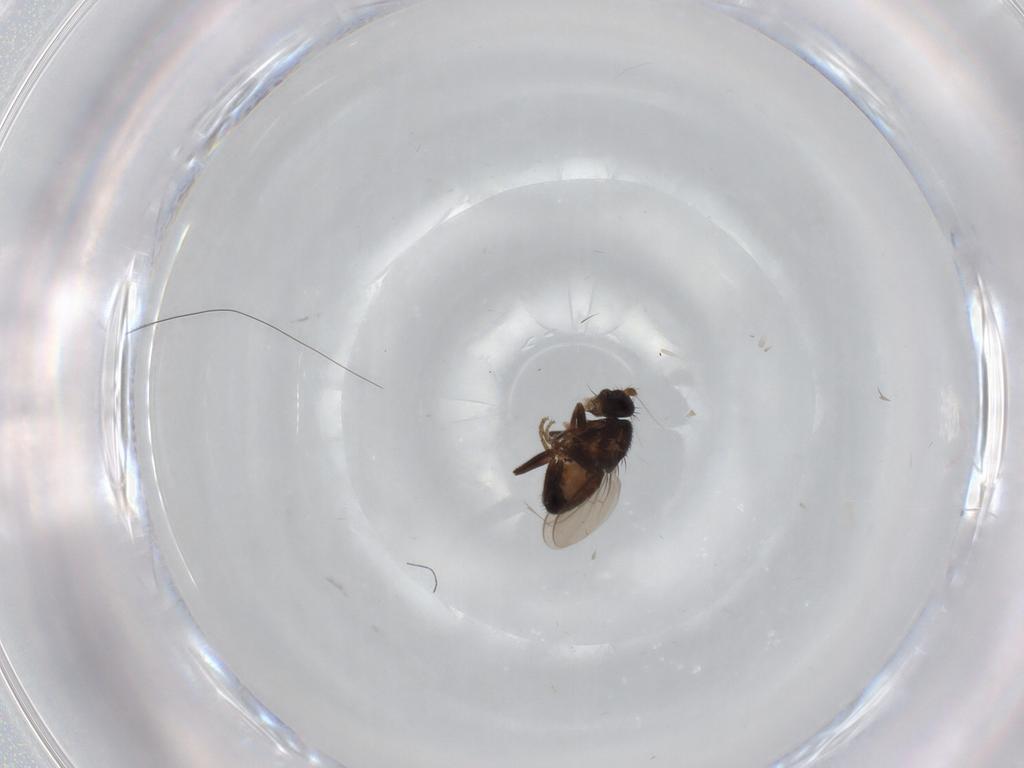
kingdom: Animalia
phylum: Arthropoda
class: Insecta
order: Diptera
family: Sphaeroceridae
